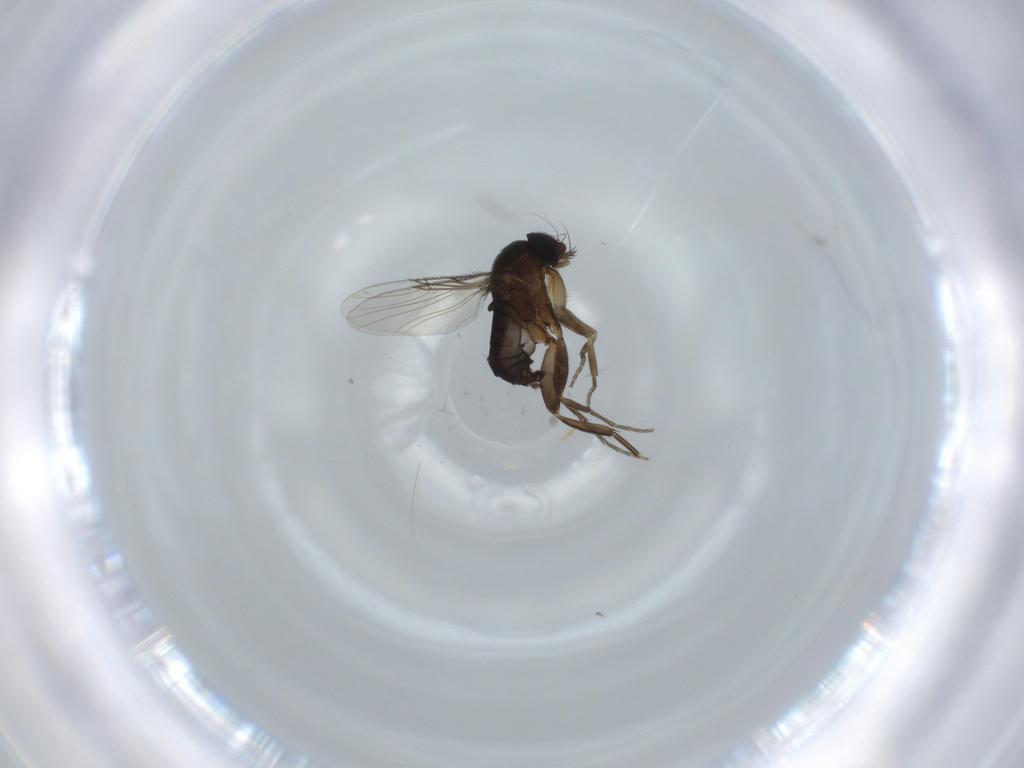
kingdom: Animalia
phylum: Arthropoda
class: Insecta
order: Diptera
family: Phoridae
